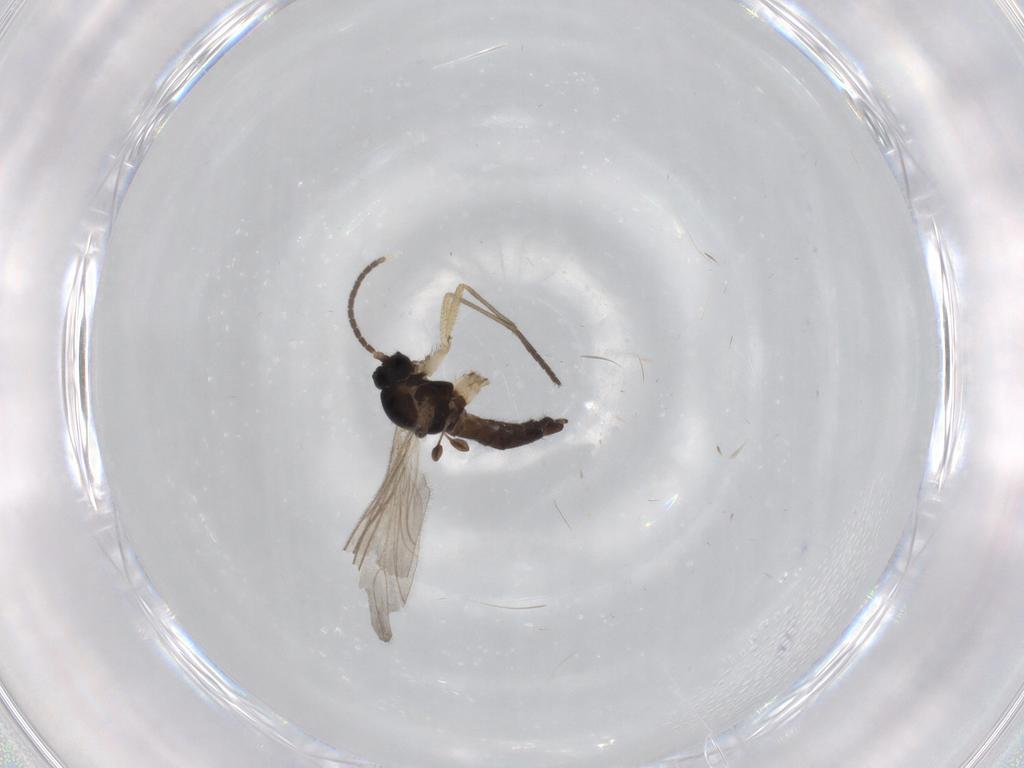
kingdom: Animalia
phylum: Arthropoda
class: Insecta
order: Diptera
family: Sciaridae
